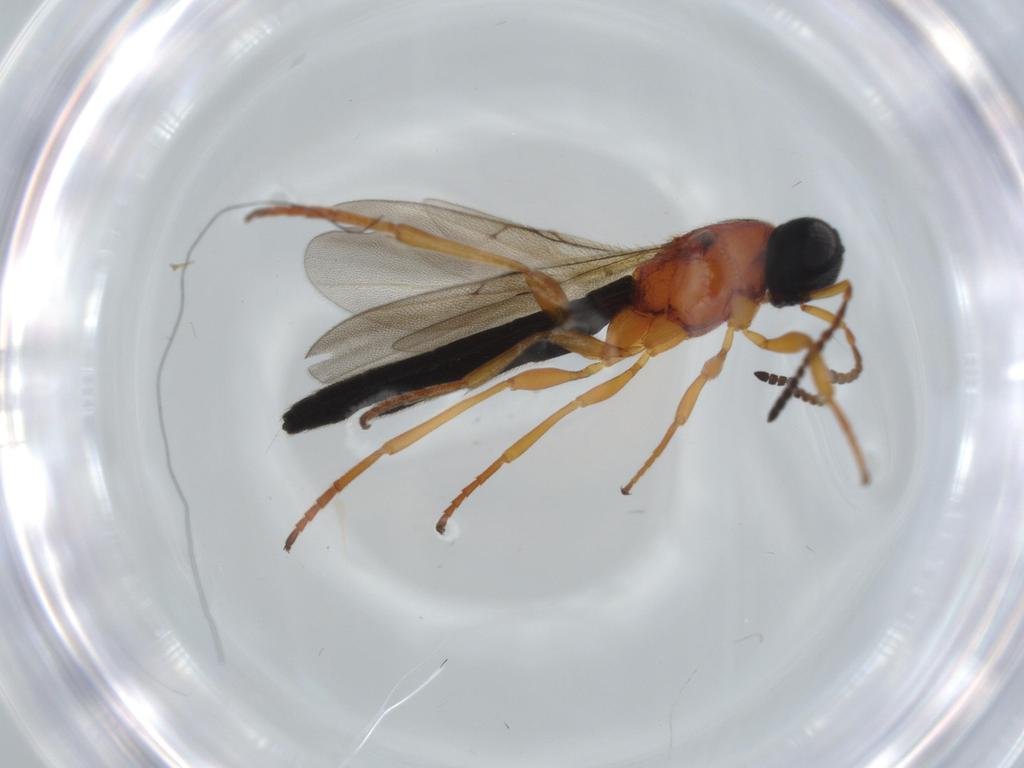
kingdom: Animalia
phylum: Arthropoda
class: Insecta
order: Hymenoptera
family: Scelionidae
